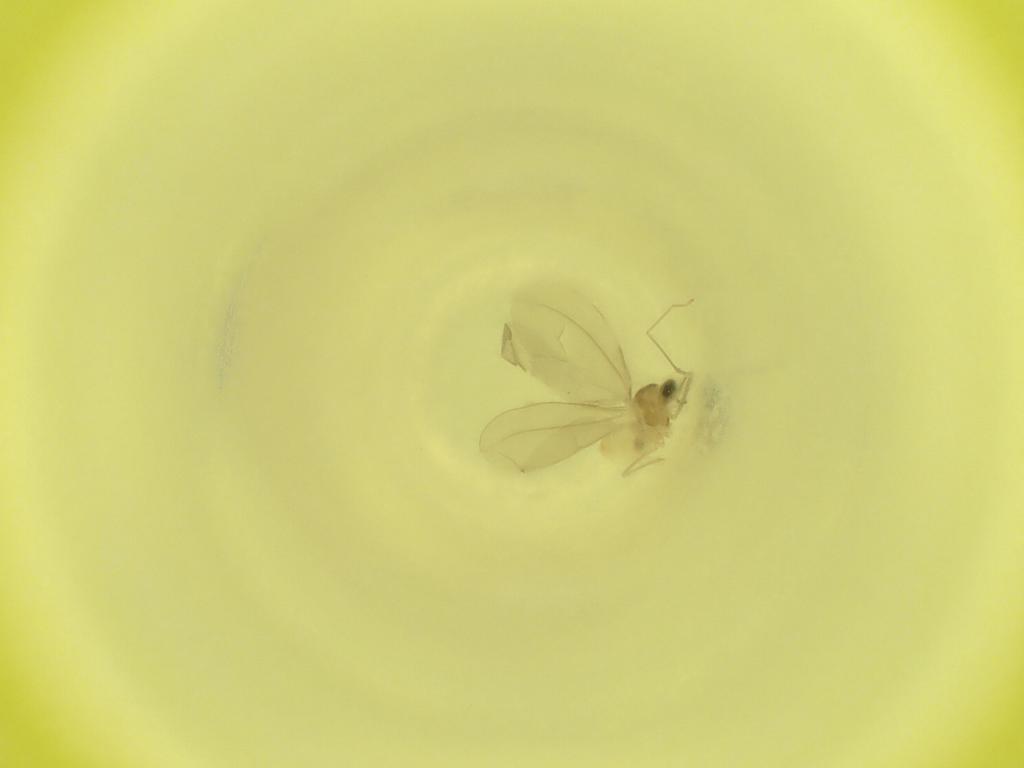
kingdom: Animalia
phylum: Arthropoda
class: Insecta
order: Diptera
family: Cecidomyiidae
